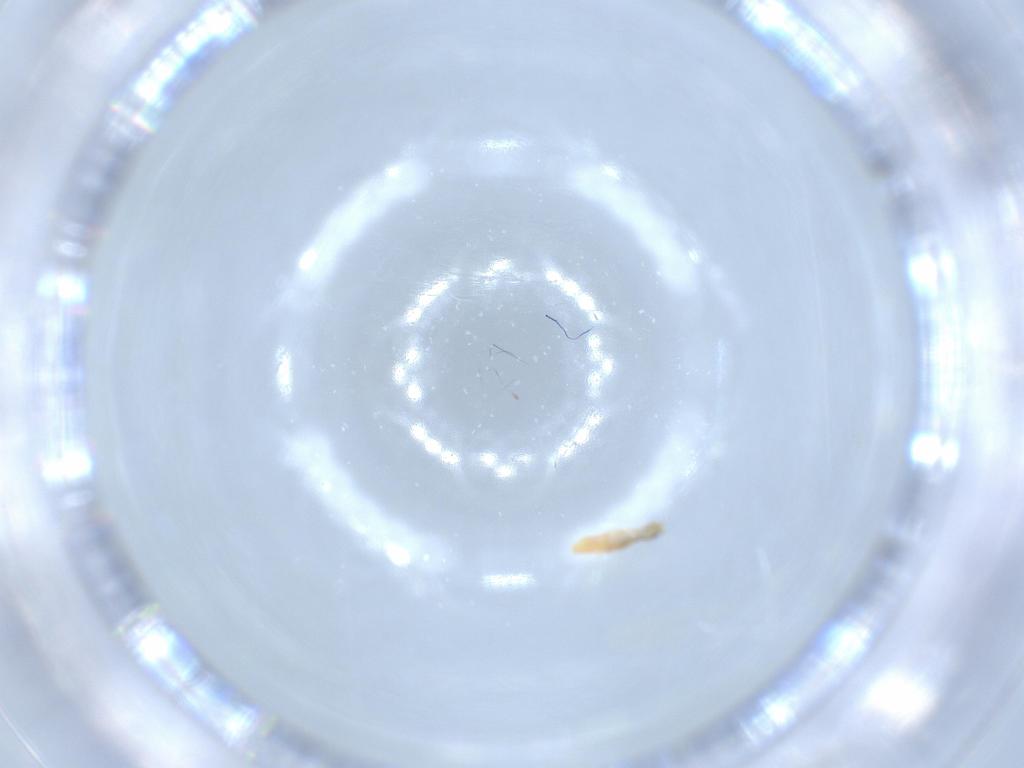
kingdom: Animalia
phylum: Arthropoda
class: Collembola
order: Entomobryomorpha
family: Entomobryidae
